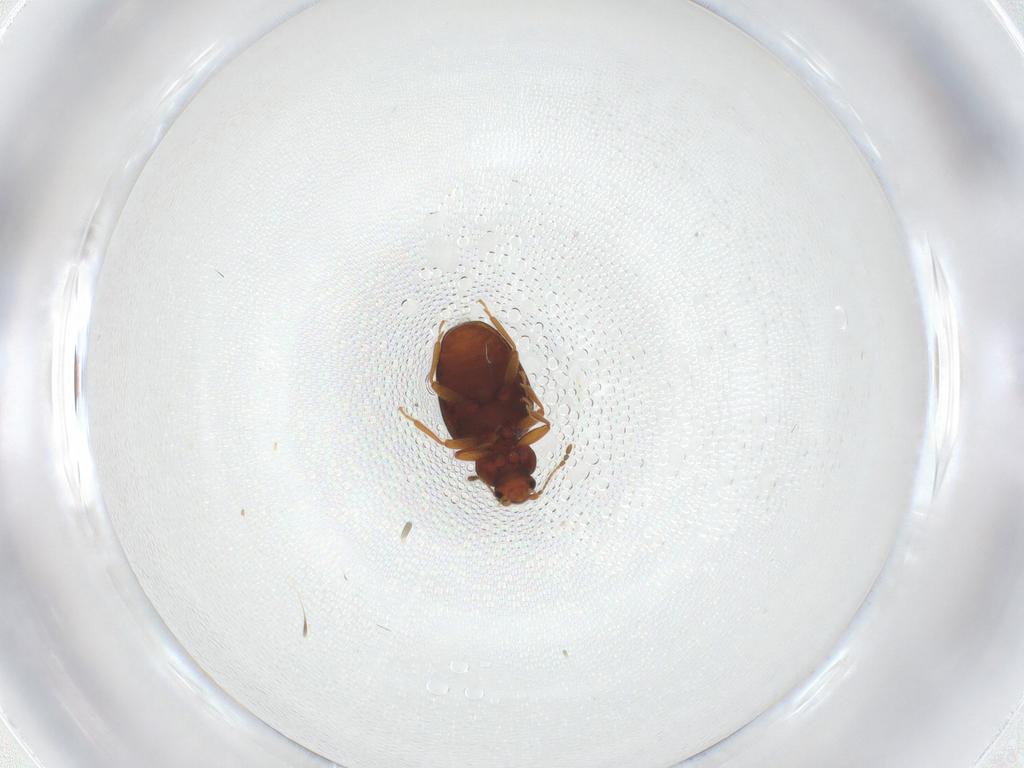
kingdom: Animalia
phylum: Arthropoda
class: Insecta
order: Coleoptera
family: Latridiidae
